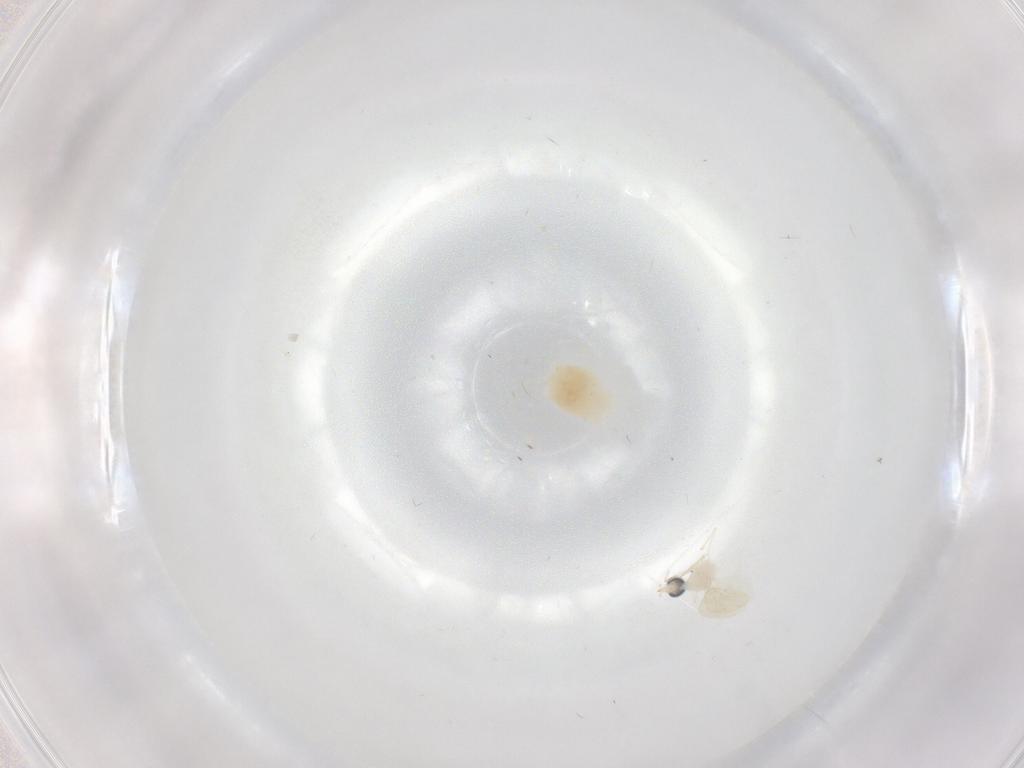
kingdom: Animalia
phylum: Arthropoda
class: Insecta
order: Diptera
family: Cecidomyiidae
